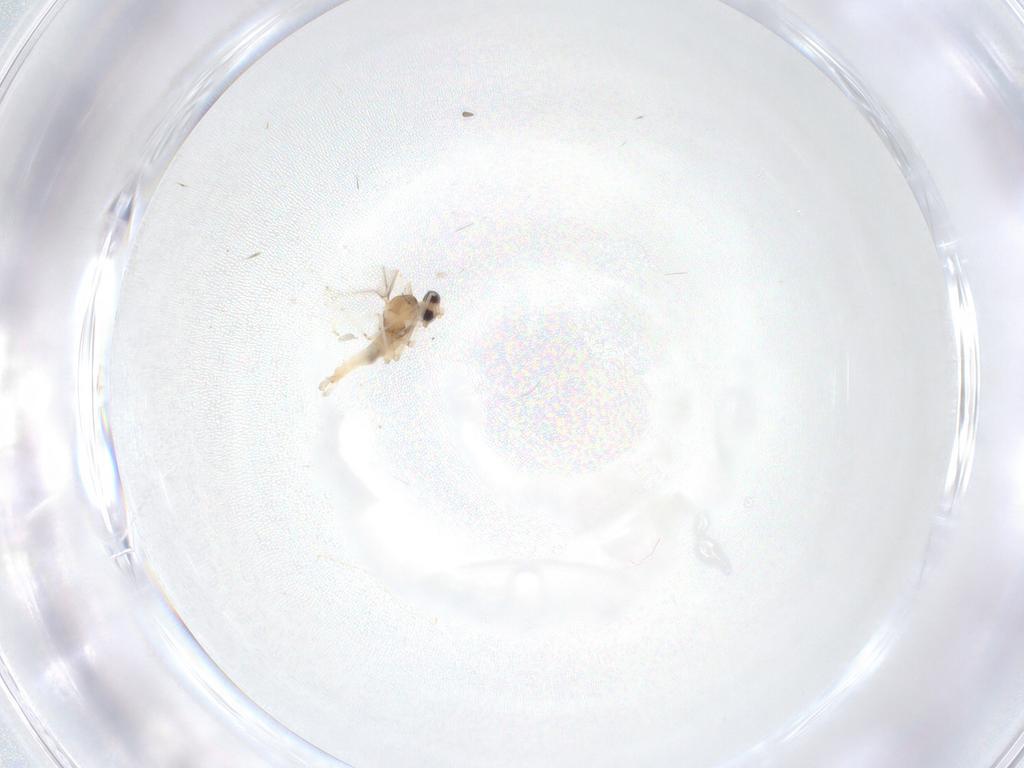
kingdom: Animalia
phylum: Arthropoda
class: Insecta
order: Diptera
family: Cecidomyiidae
